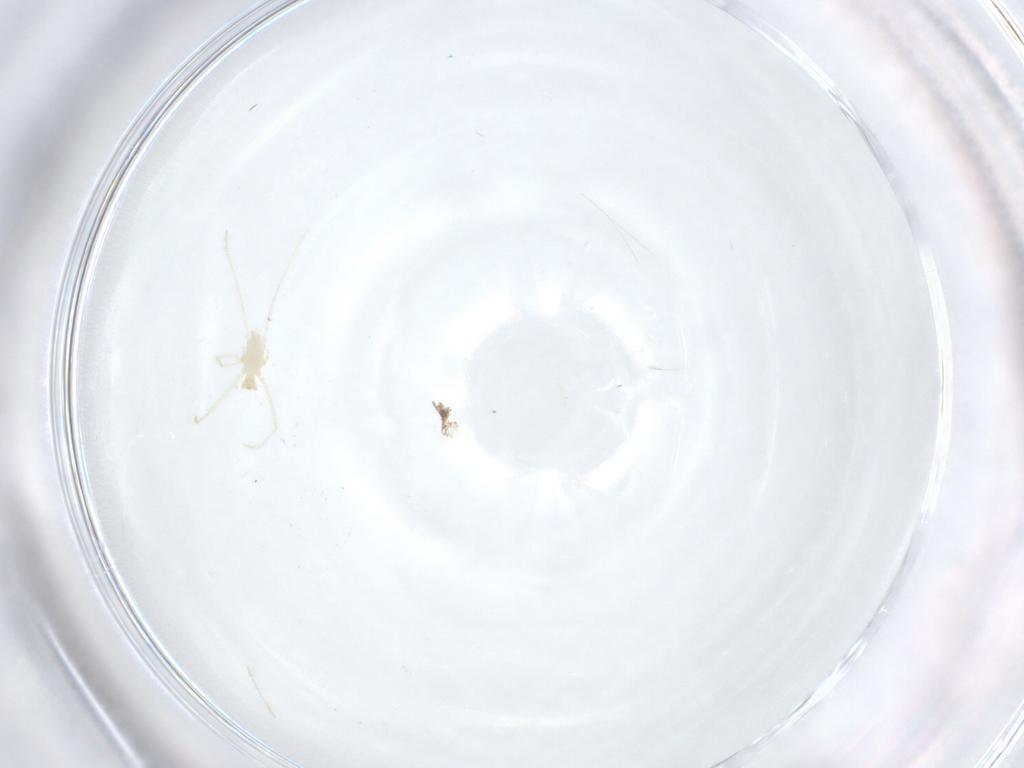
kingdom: Animalia
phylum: Arthropoda
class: Arachnida
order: Trombidiformes
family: Erythraeidae
